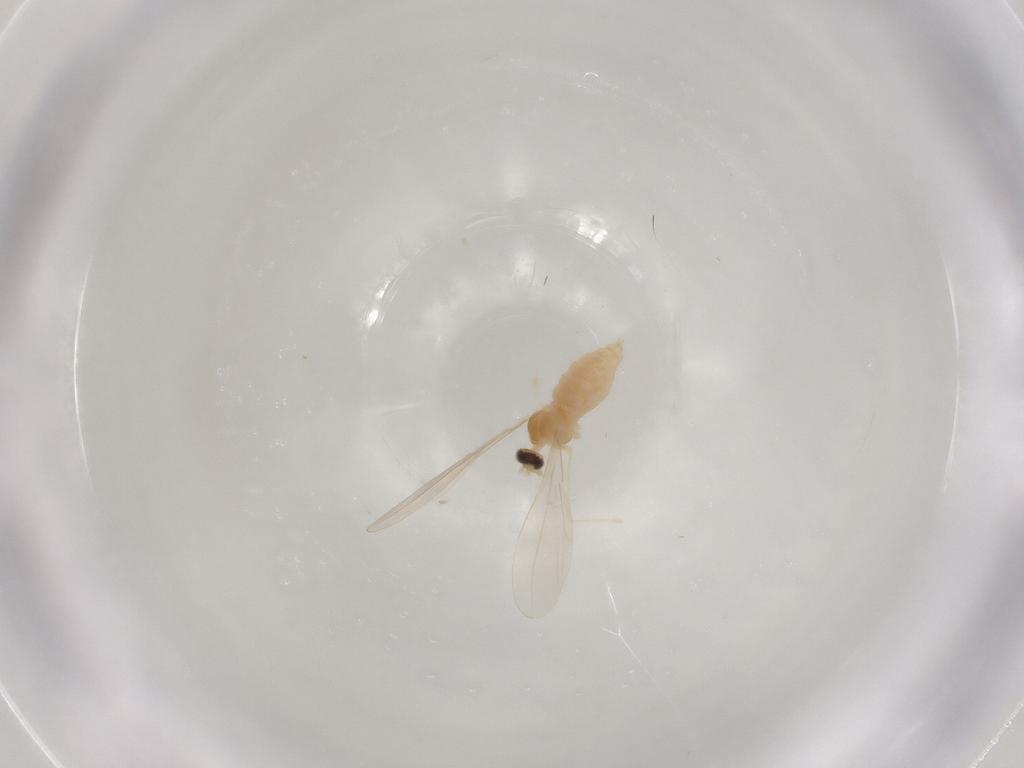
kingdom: Animalia
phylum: Arthropoda
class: Insecta
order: Diptera
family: Cecidomyiidae
